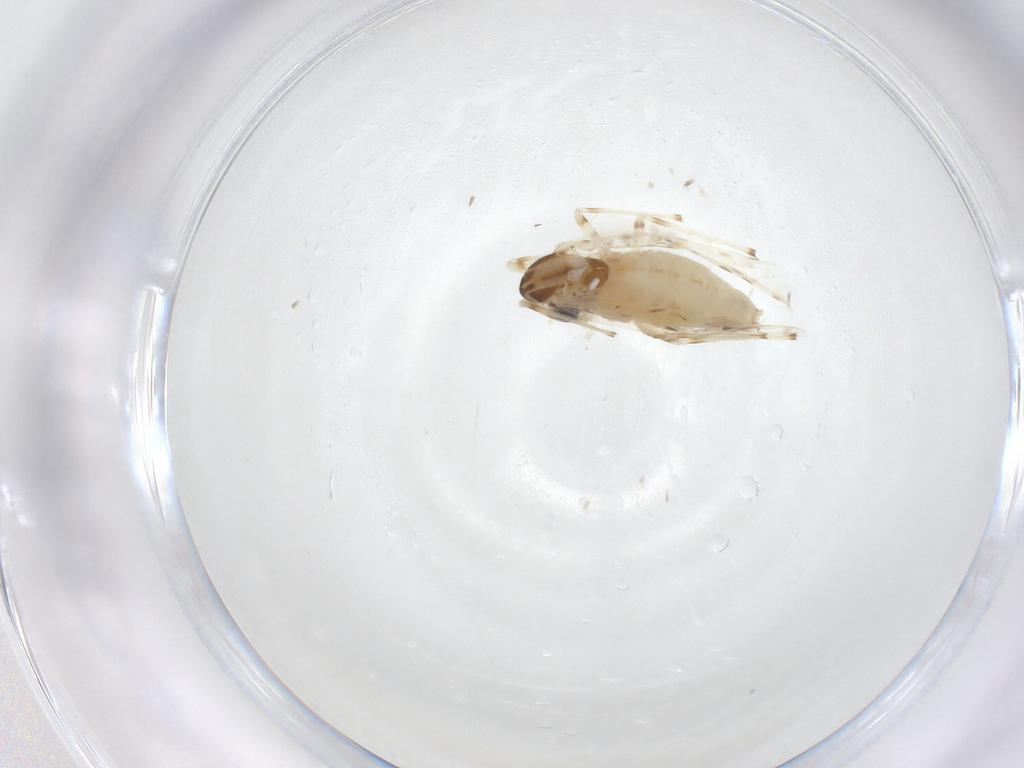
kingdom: Animalia
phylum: Arthropoda
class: Insecta
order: Diptera
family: Chironomidae
